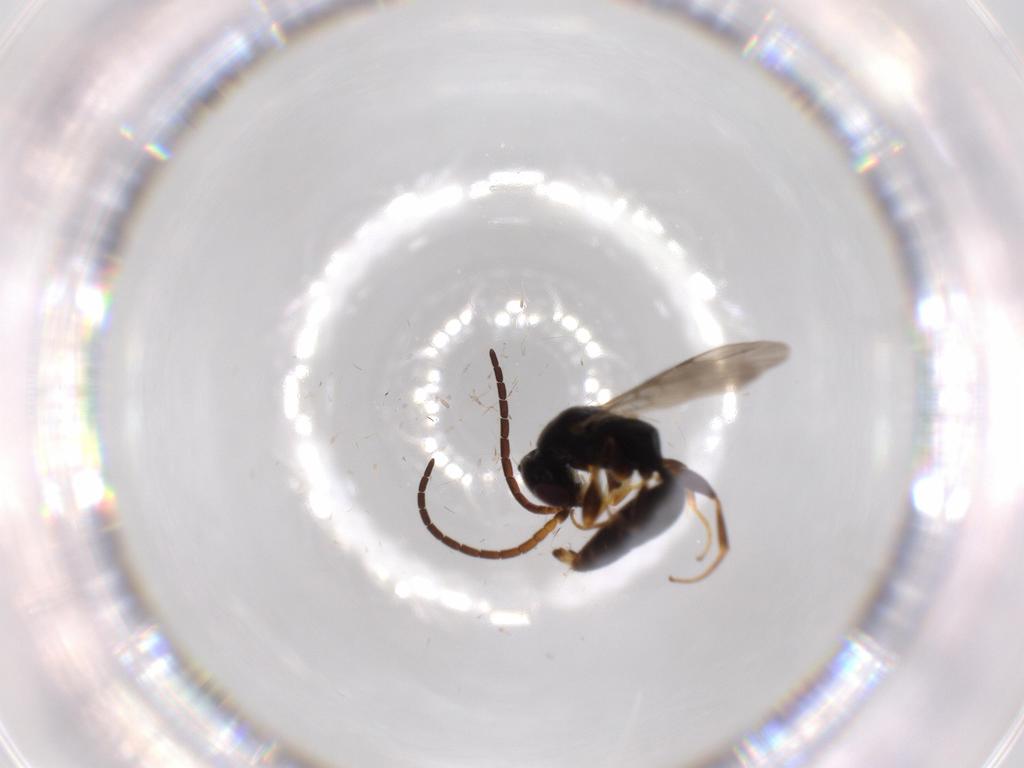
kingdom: Animalia
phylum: Arthropoda
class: Insecta
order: Hymenoptera
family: Bethylidae
